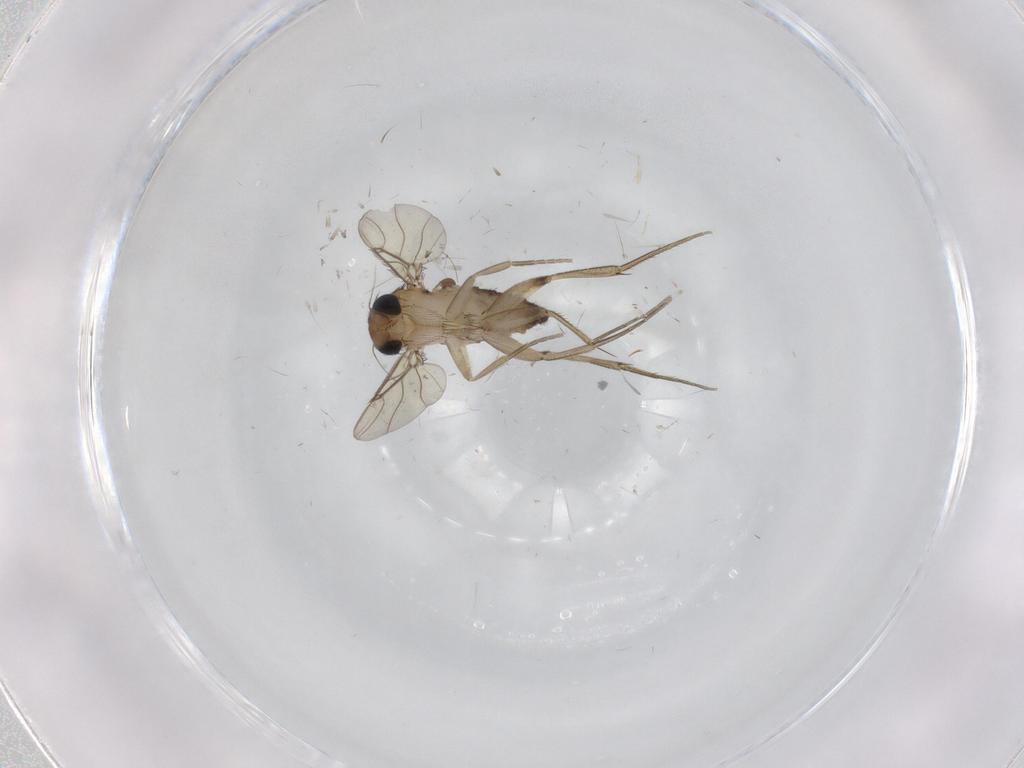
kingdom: Animalia
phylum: Arthropoda
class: Insecta
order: Diptera
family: Phoridae
